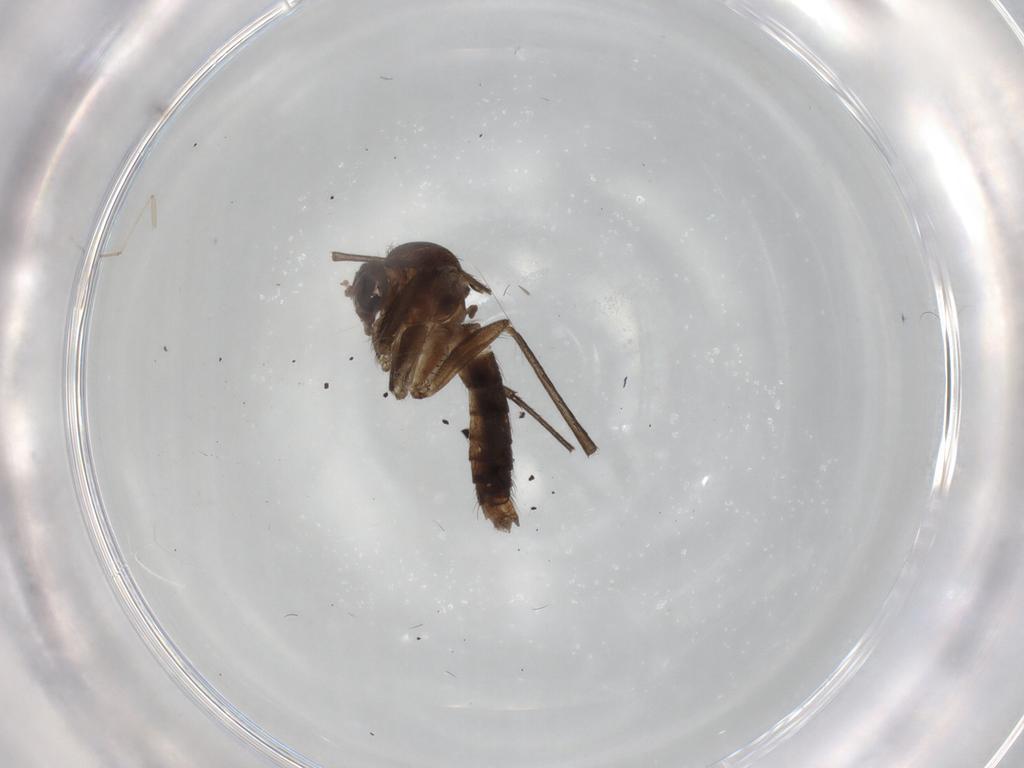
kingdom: Animalia
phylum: Arthropoda
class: Insecta
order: Diptera
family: Cecidomyiidae
